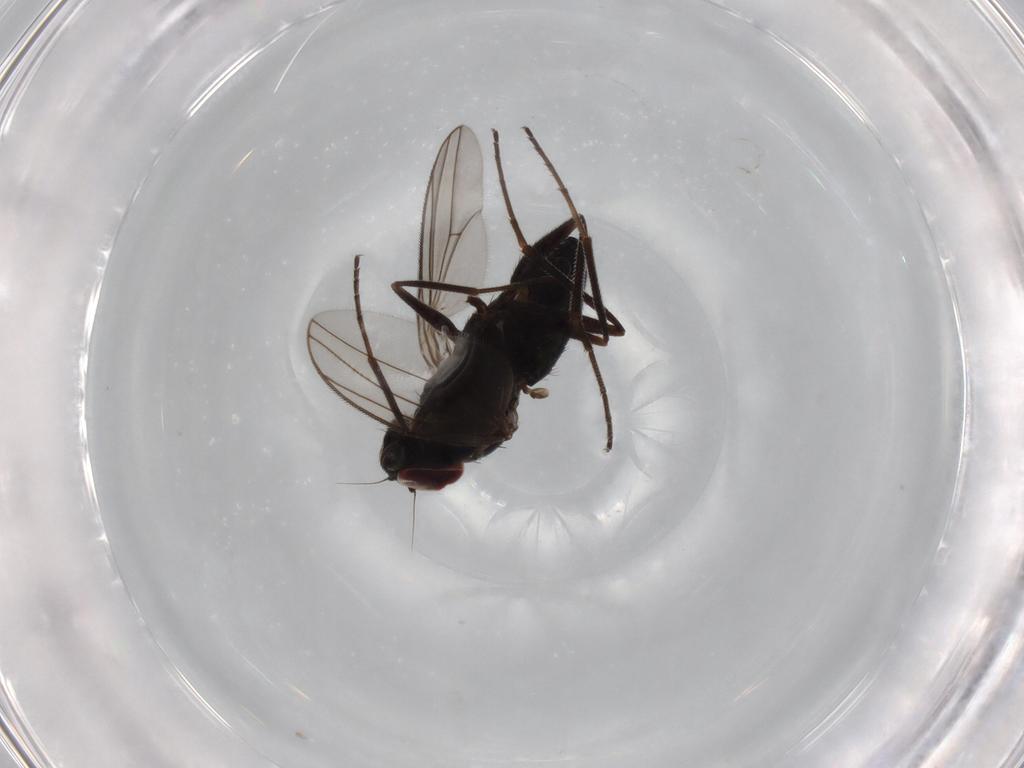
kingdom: Animalia
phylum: Arthropoda
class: Insecta
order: Diptera
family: Dolichopodidae
